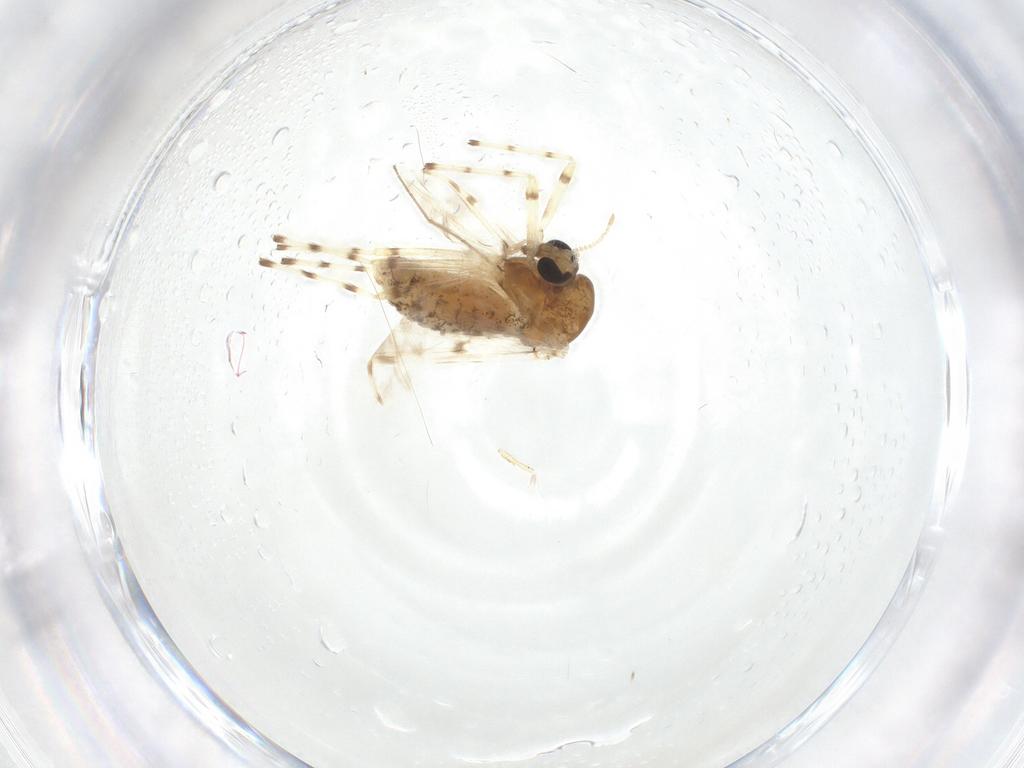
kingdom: Animalia
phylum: Arthropoda
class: Insecta
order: Diptera
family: Chironomidae
